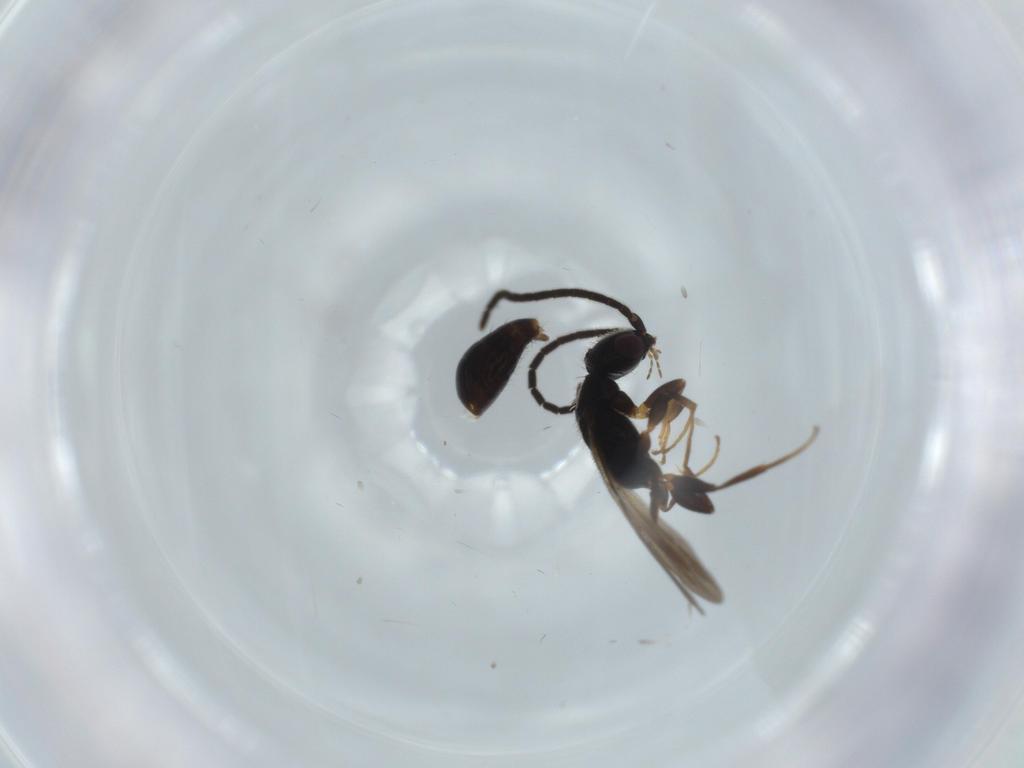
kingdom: Animalia
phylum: Arthropoda
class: Insecta
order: Hymenoptera
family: Bethylidae
